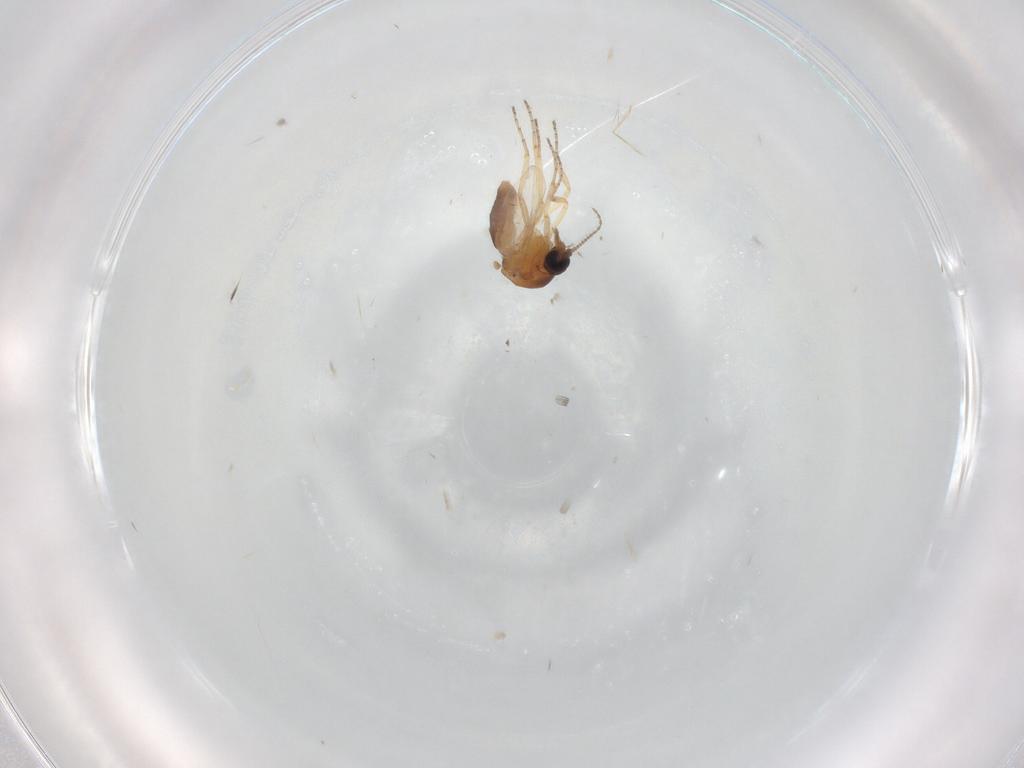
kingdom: Animalia
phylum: Arthropoda
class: Insecta
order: Diptera
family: Ceratopogonidae
